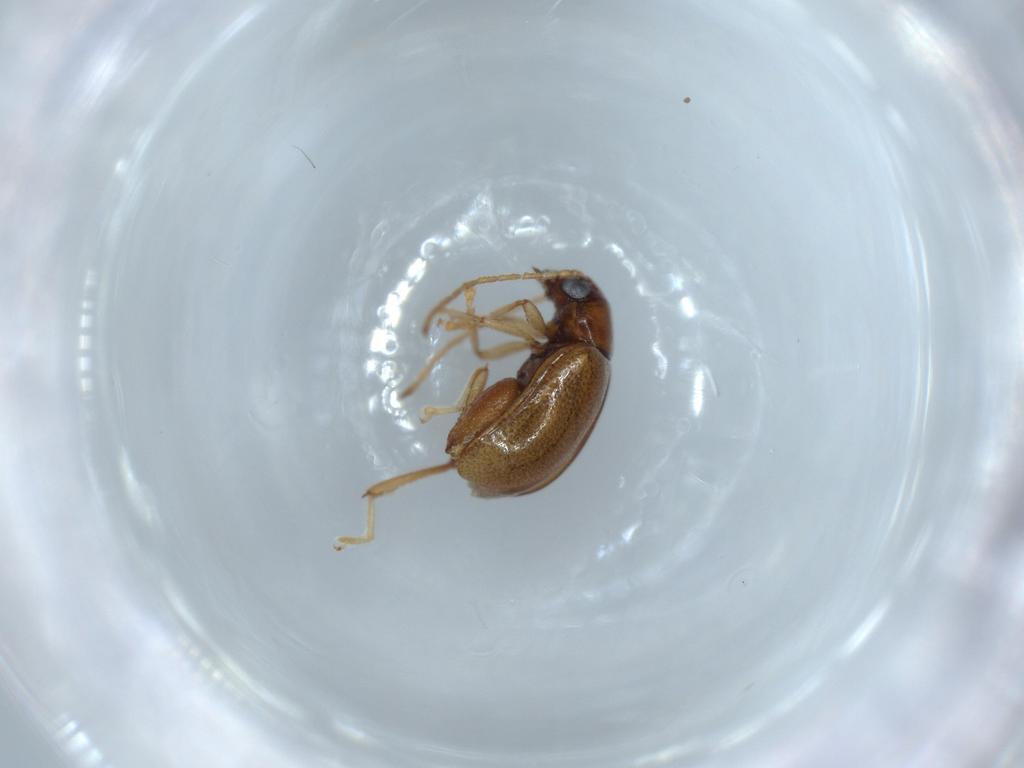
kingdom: Animalia
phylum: Arthropoda
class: Insecta
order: Coleoptera
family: Chrysomelidae
